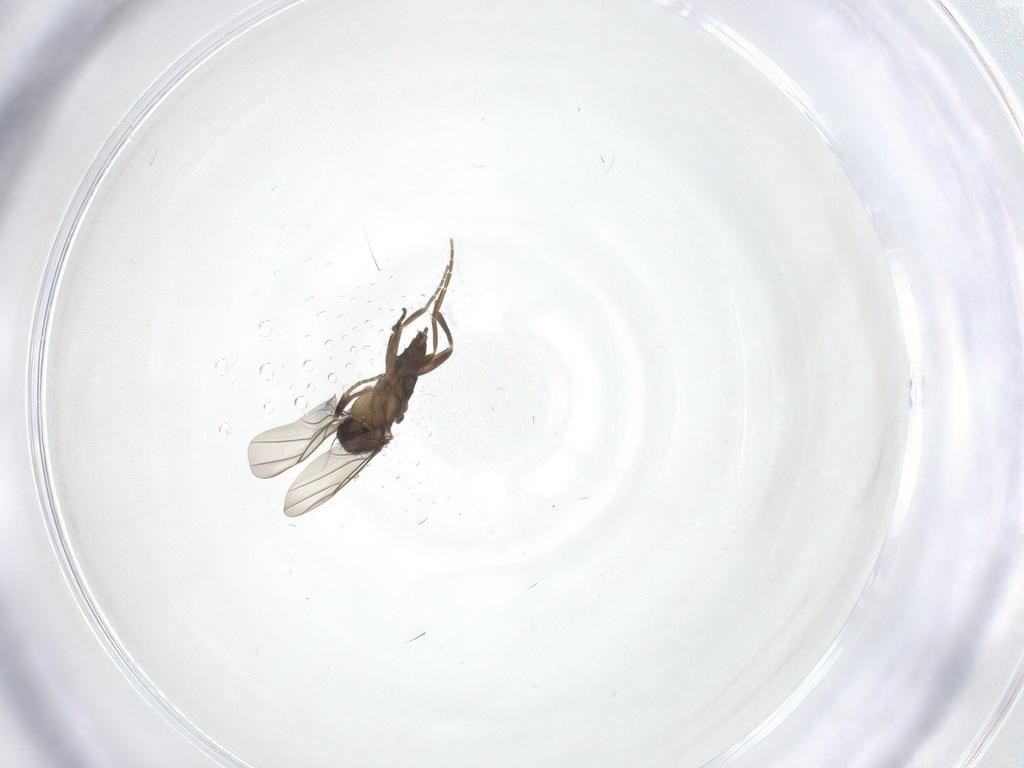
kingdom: Animalia
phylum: Arthropoda
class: Insecta
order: Diptera
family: Phoridae
